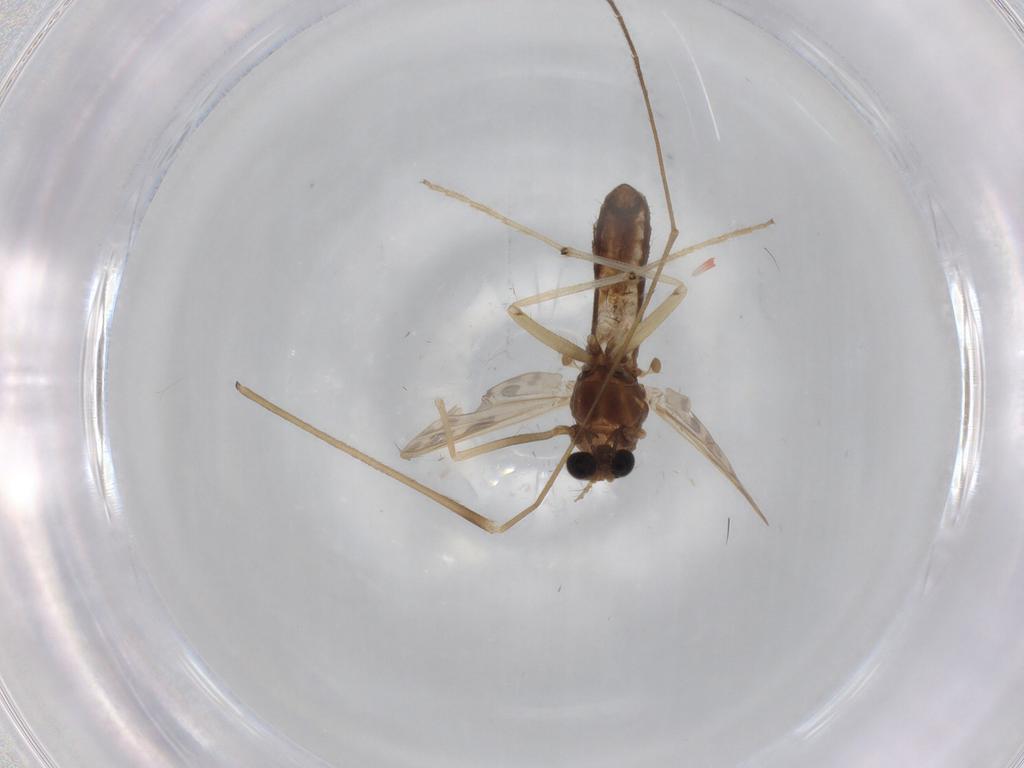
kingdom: Animalia
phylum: Arthropoda
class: Insecta
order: Diptera
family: Chironomidae
